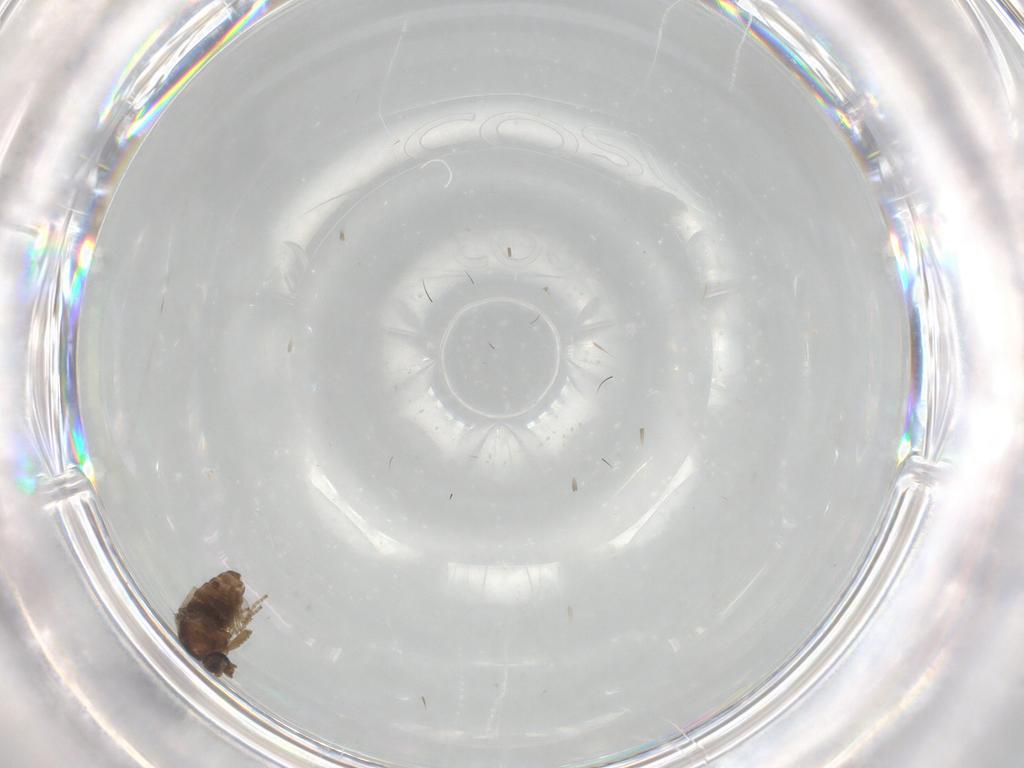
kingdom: Animalia
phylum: Arthropoda
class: Insecta
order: Diptera
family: Ceratopogonidae
